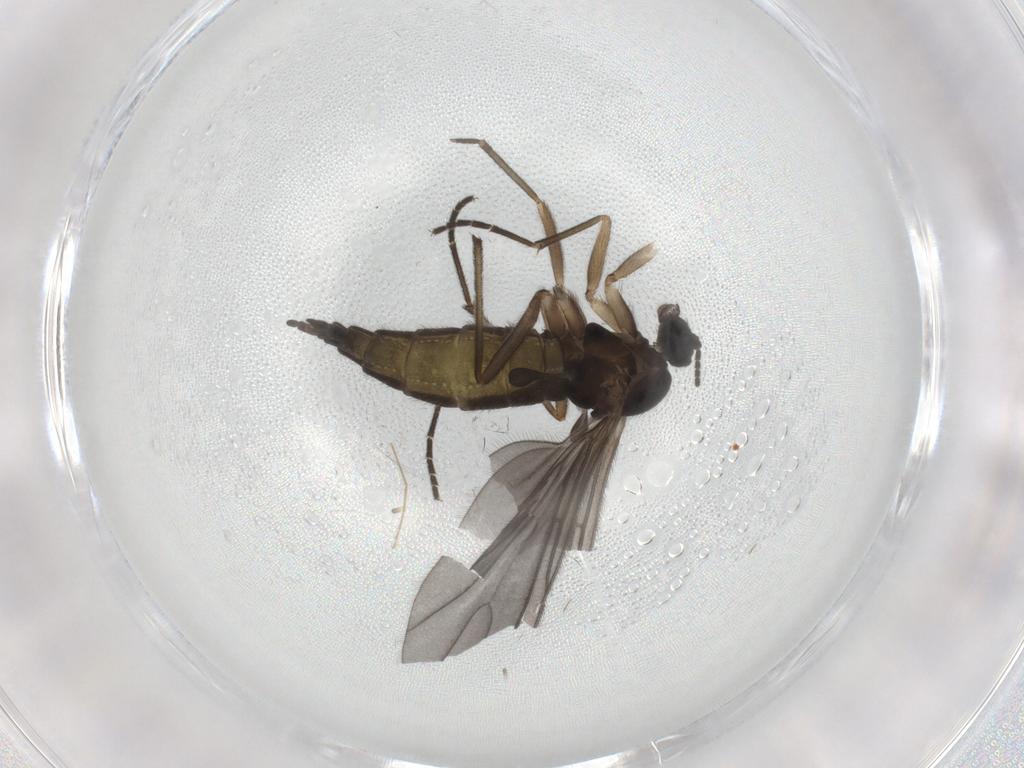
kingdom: Animalia
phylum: Arthropoda
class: Insecta
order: Diptera
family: Sciaridae
